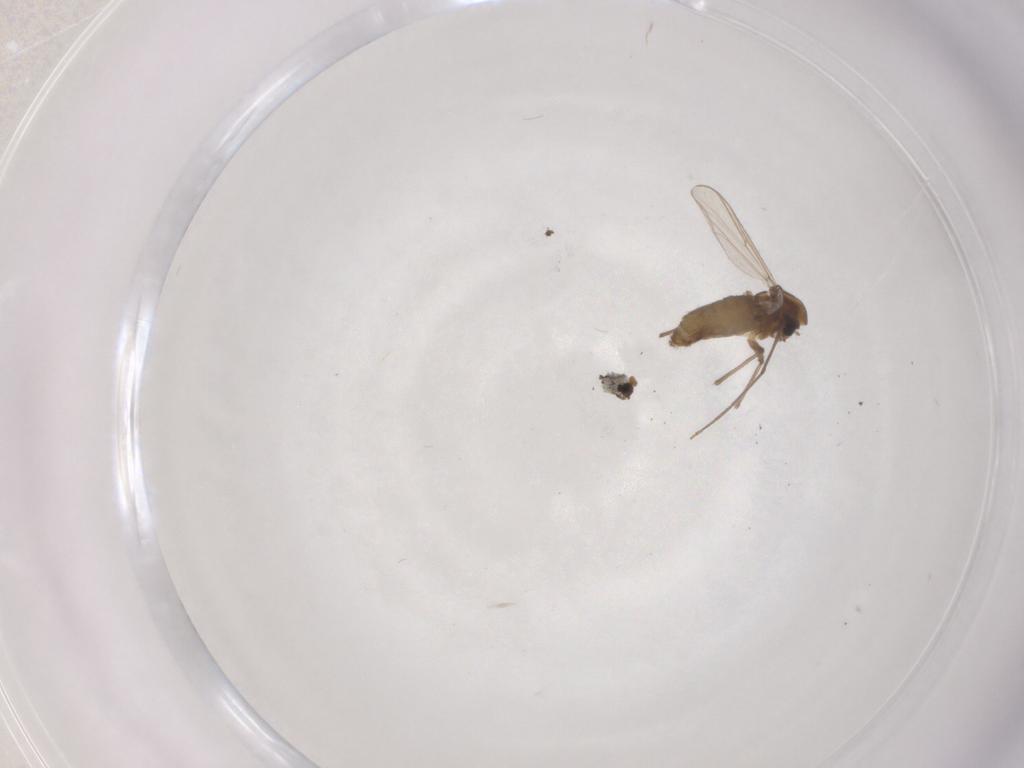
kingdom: Animalia
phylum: Arthropoda
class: Insecta
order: Diptera
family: Chironomidae
